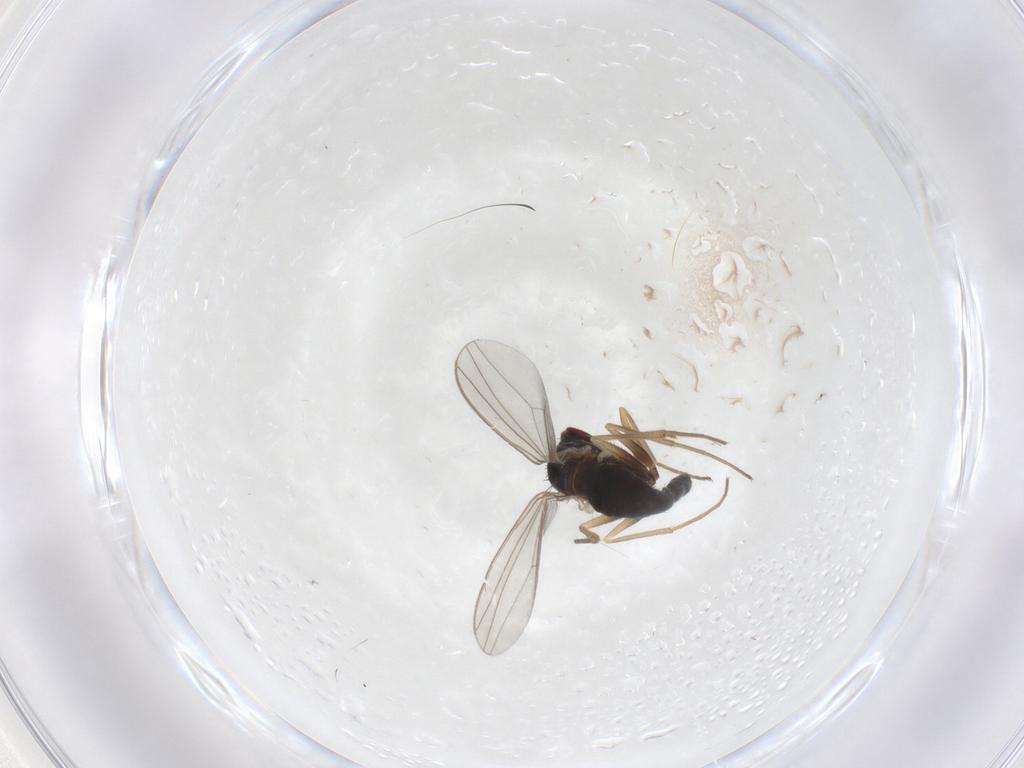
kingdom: Animalia
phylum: Arthropoda
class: Insecta
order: Diptera
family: Dolichopodidae
